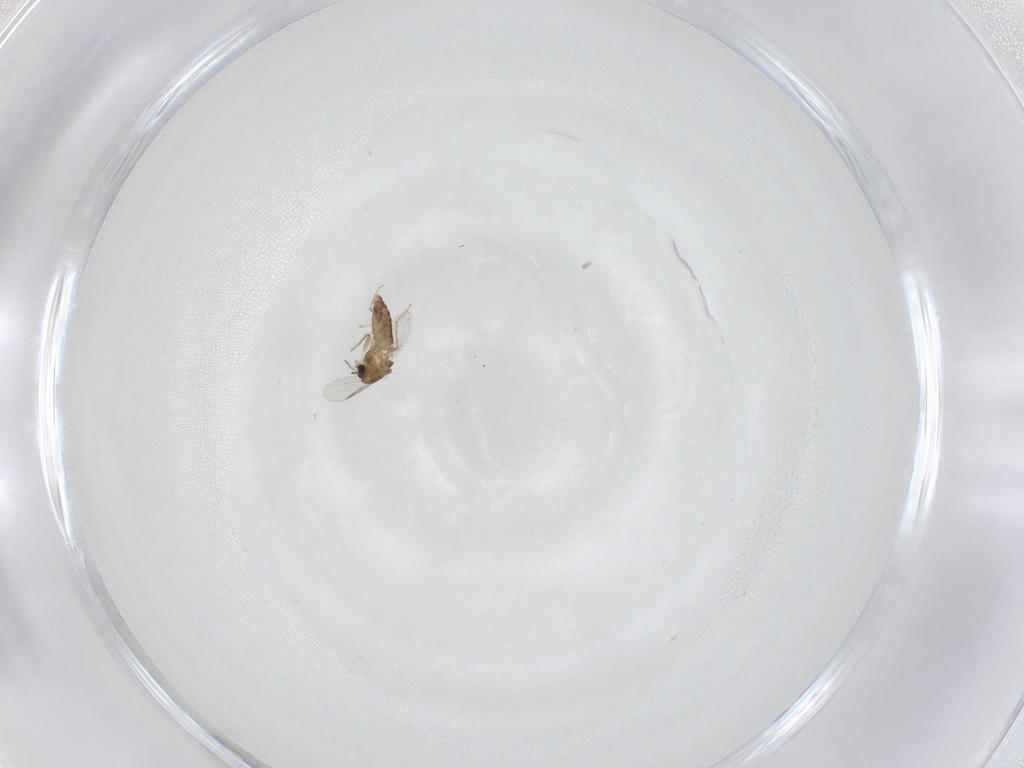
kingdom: Animalia
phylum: Arthropoda
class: Insecta
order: Diptera
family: Chironomidae
